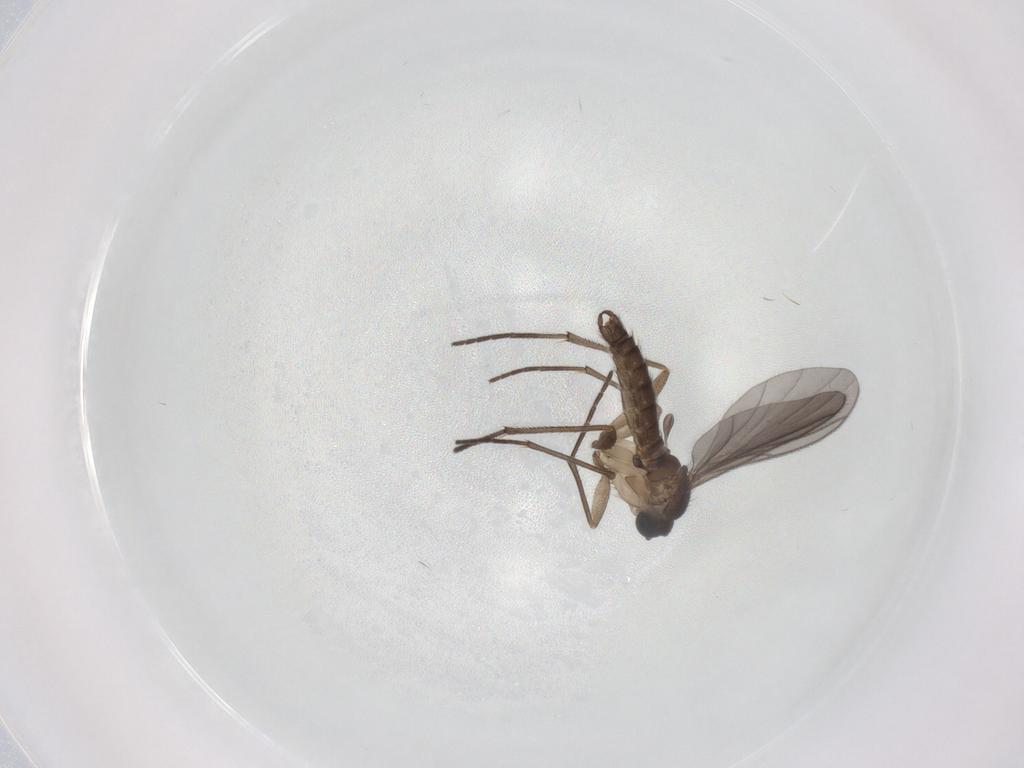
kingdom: Animalia
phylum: Arthropoda
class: Insecta
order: Diptera
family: Sciaridae
